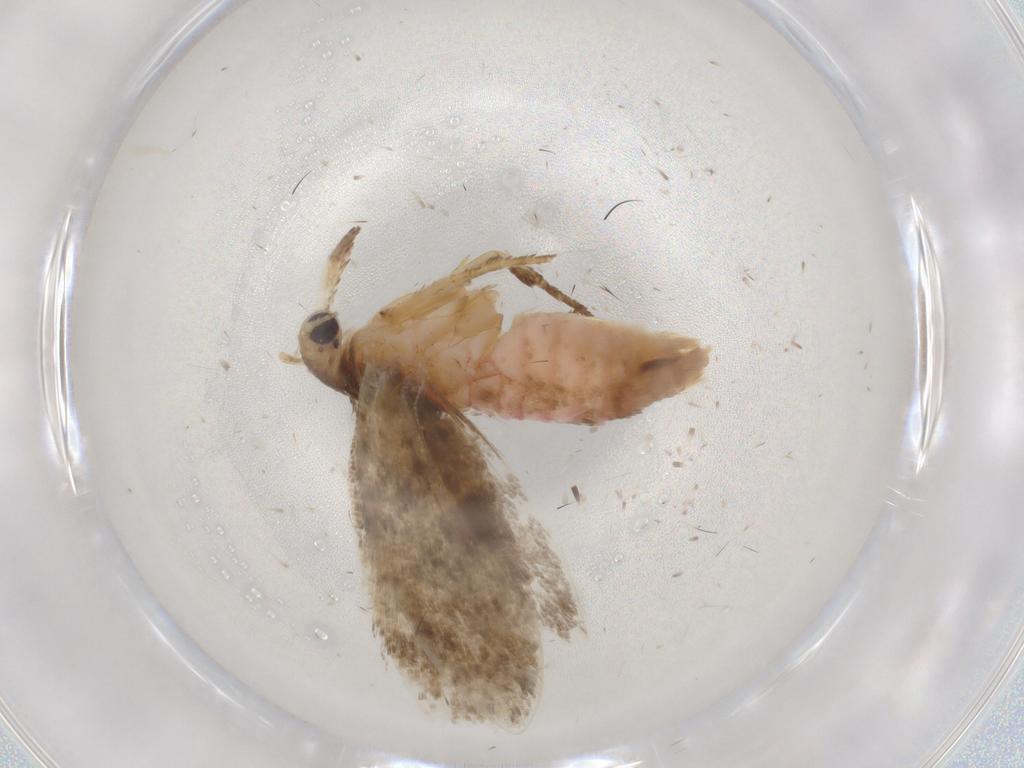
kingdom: Animalia
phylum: Arthropoda
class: Insecta
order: Lepidoptera
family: Plutellidae
